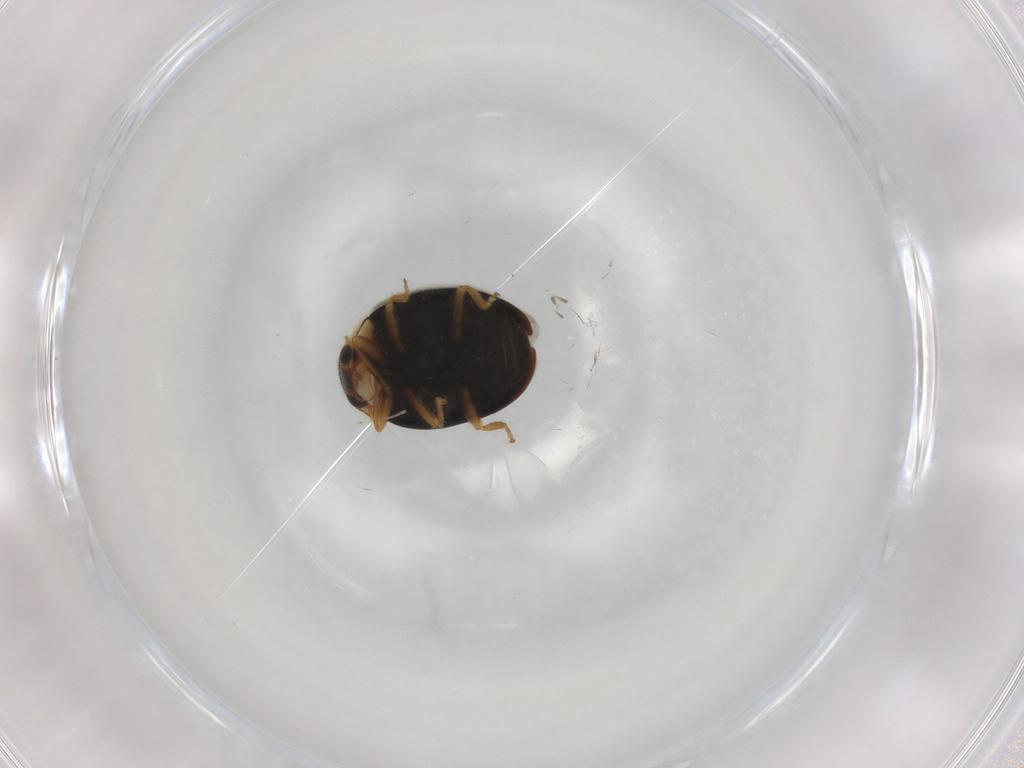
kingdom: Animalia
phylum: Arthropoda
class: Insecta
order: Coleoptera
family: Coccinellidae
